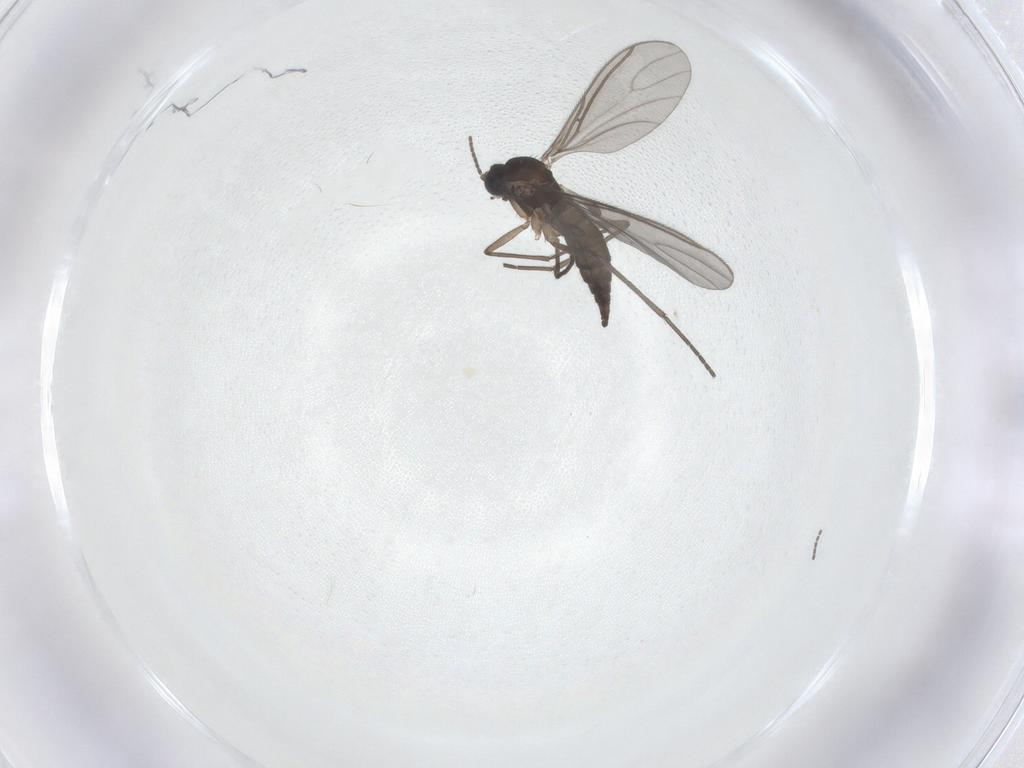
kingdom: Animalia
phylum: Arthropoda
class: Insecta
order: Diptera
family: Sciaridae
